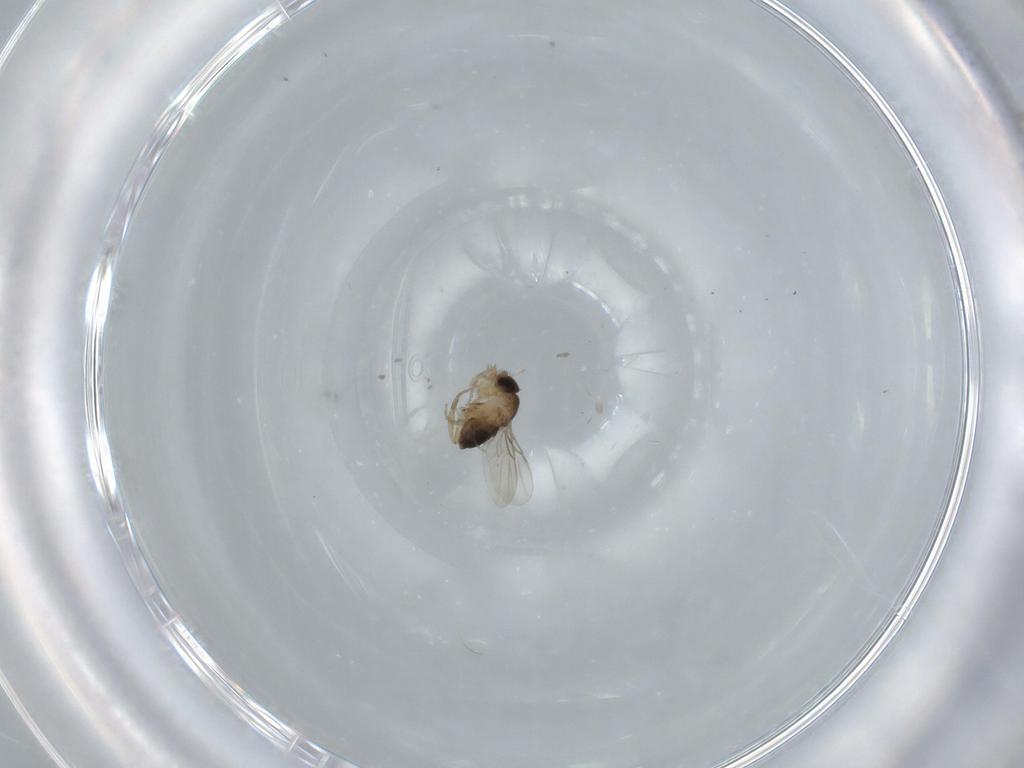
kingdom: Animalia
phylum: Arthropoda
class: Insecta
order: Diptera
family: Phoridae
